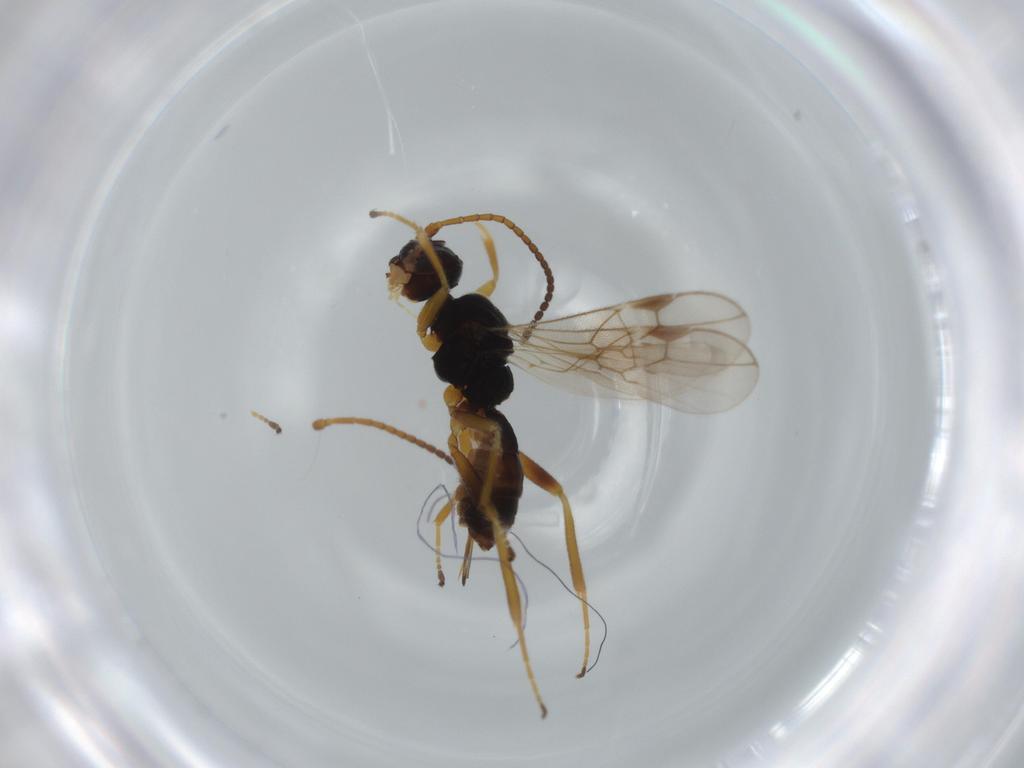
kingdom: Animalia
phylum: Arthropoda
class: Insecta
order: Hymenoptera
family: Braconidae
